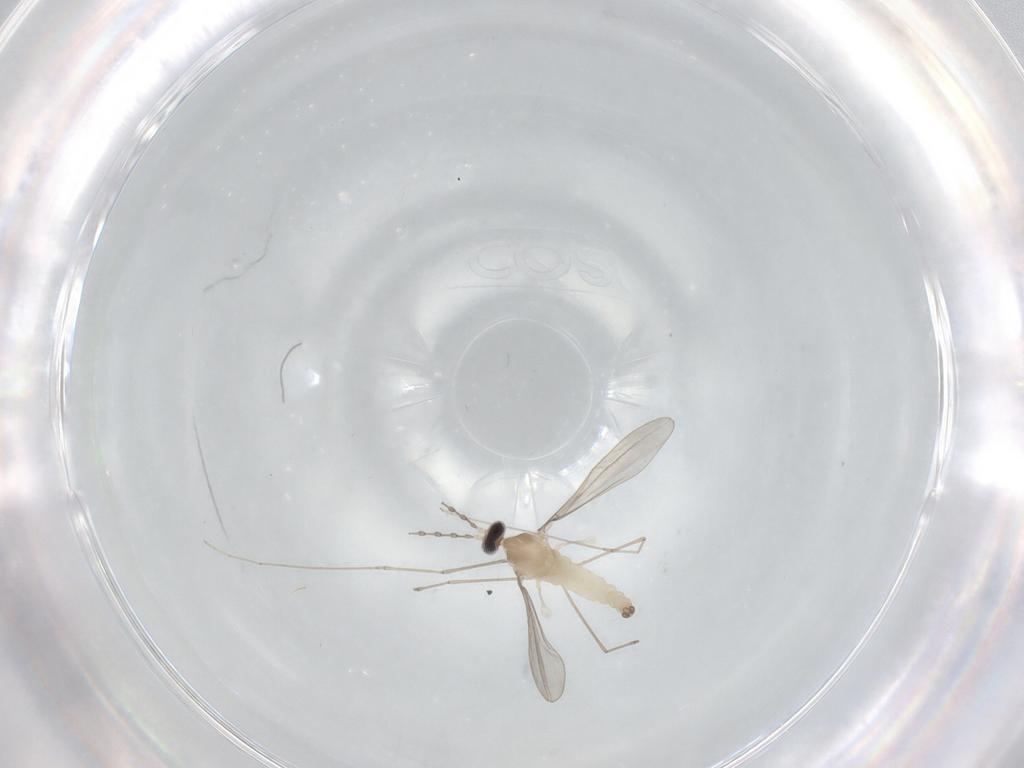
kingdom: Animalia
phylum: Arthropoda
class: Insecta
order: Diptera
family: Cecidomyiidae
